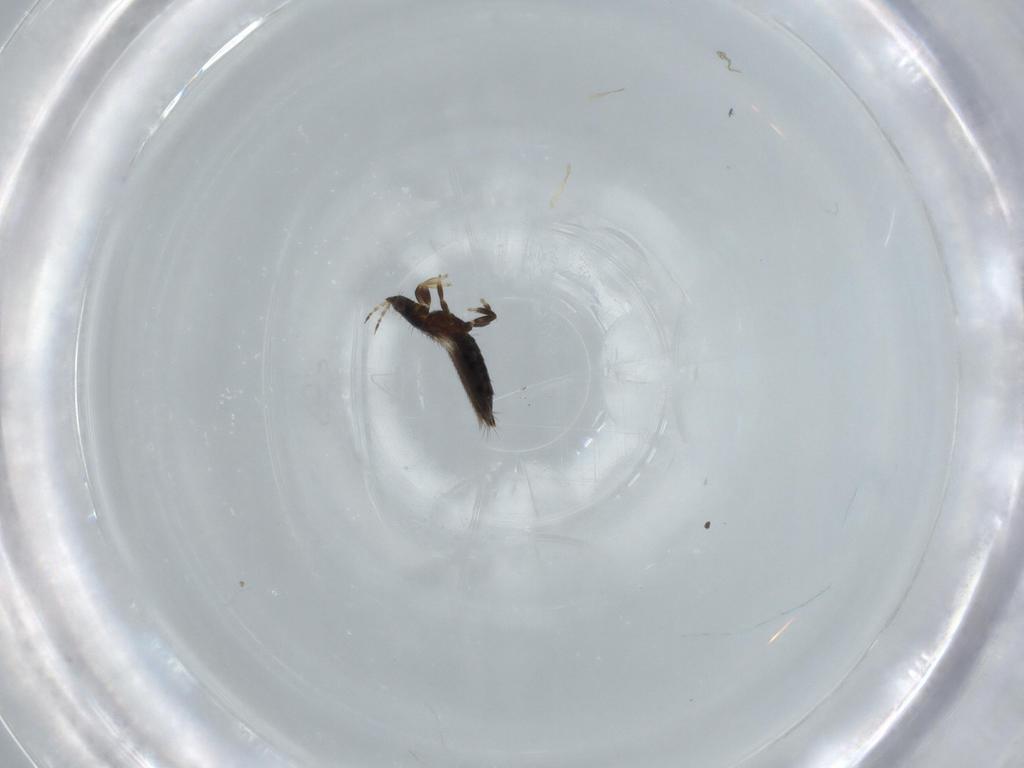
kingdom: Animalia
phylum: Arthropoda
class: Insecta
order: Thysanoptera
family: Thripidae
